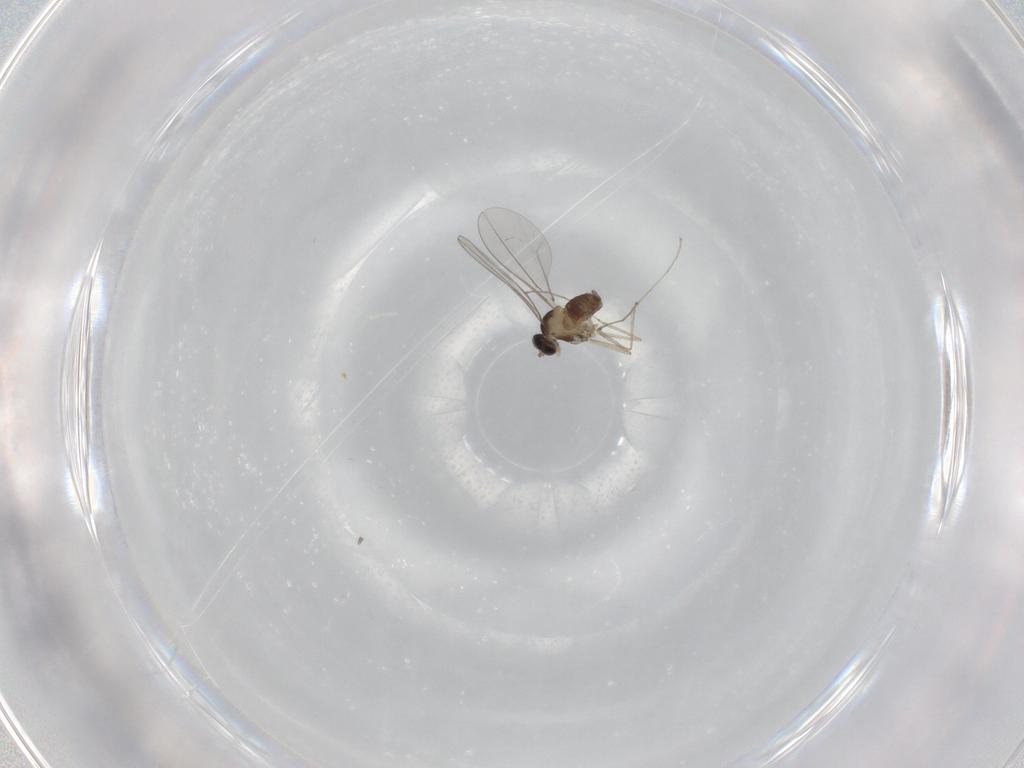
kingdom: Animalia
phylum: Arthropoda
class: Insecta
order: Diptera
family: Cecidomyiidae
